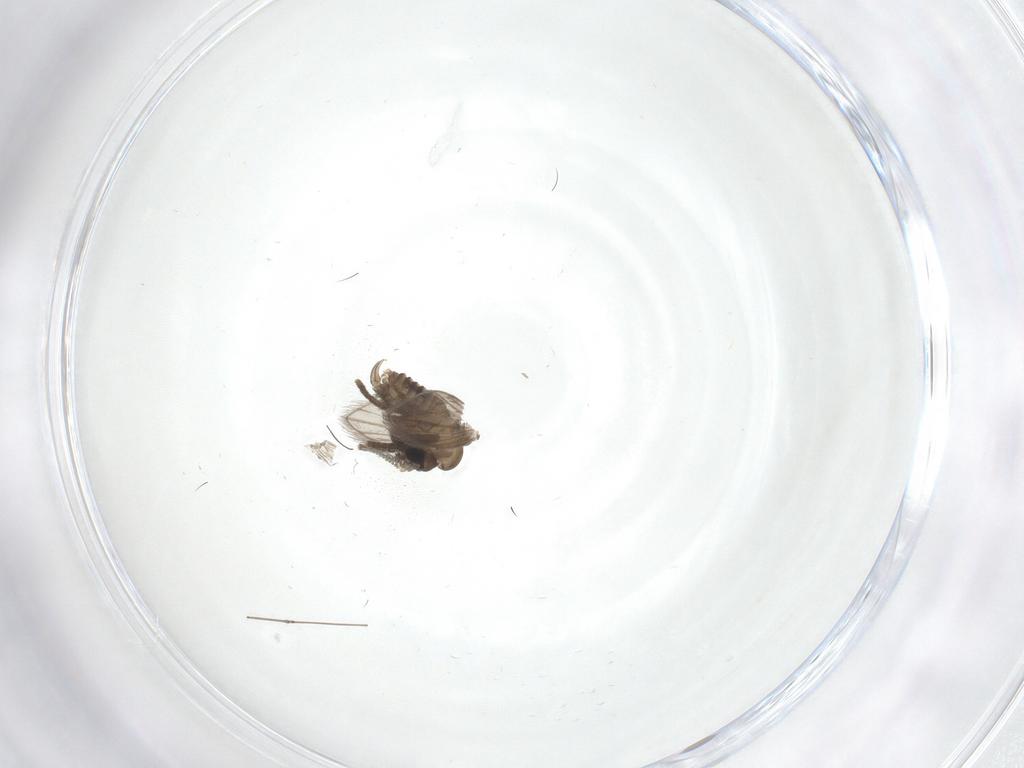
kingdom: Animalia
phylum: Arthropoda
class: Insecta
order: Diptera
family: Psychodidae
